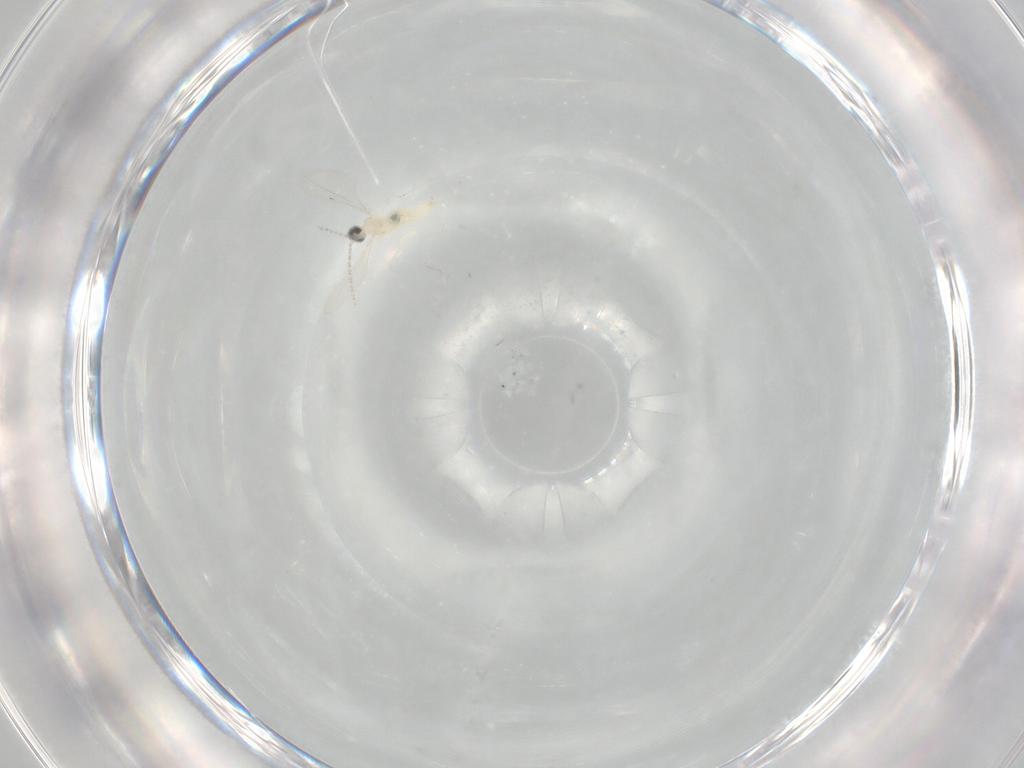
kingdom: Animalia
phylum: Arthropoda
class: Insecta
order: Diptera
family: Cecidomyiidae
